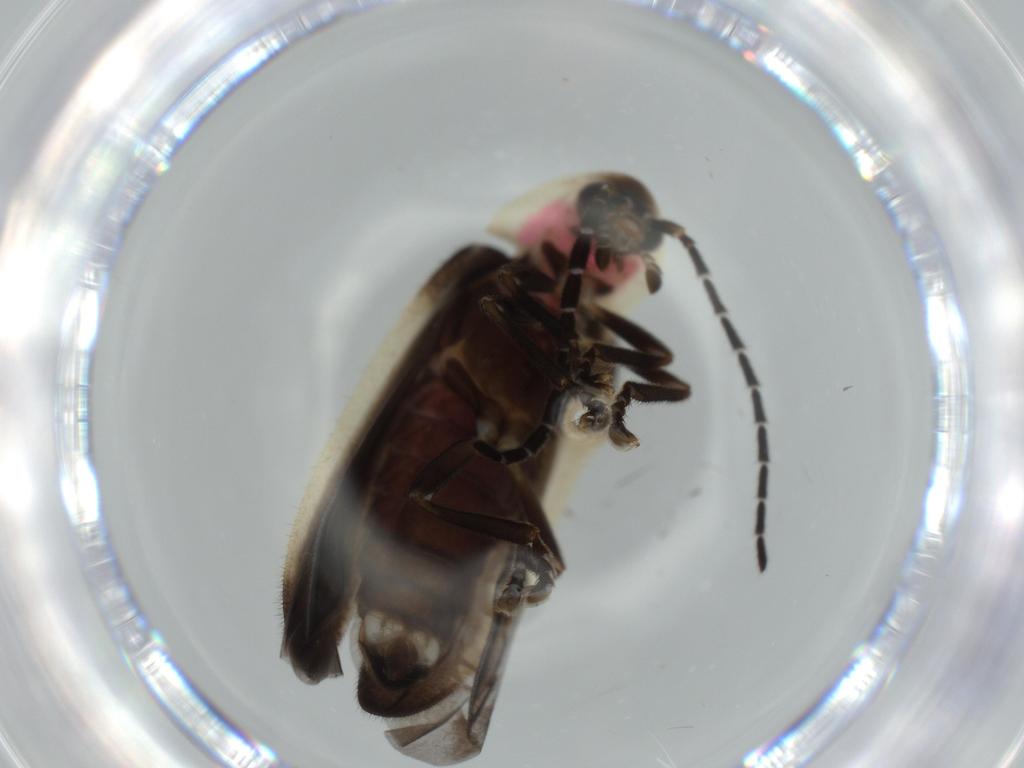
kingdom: Animalia
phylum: Arthropoda
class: Insecta
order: Coleoptera
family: Lampyridae
